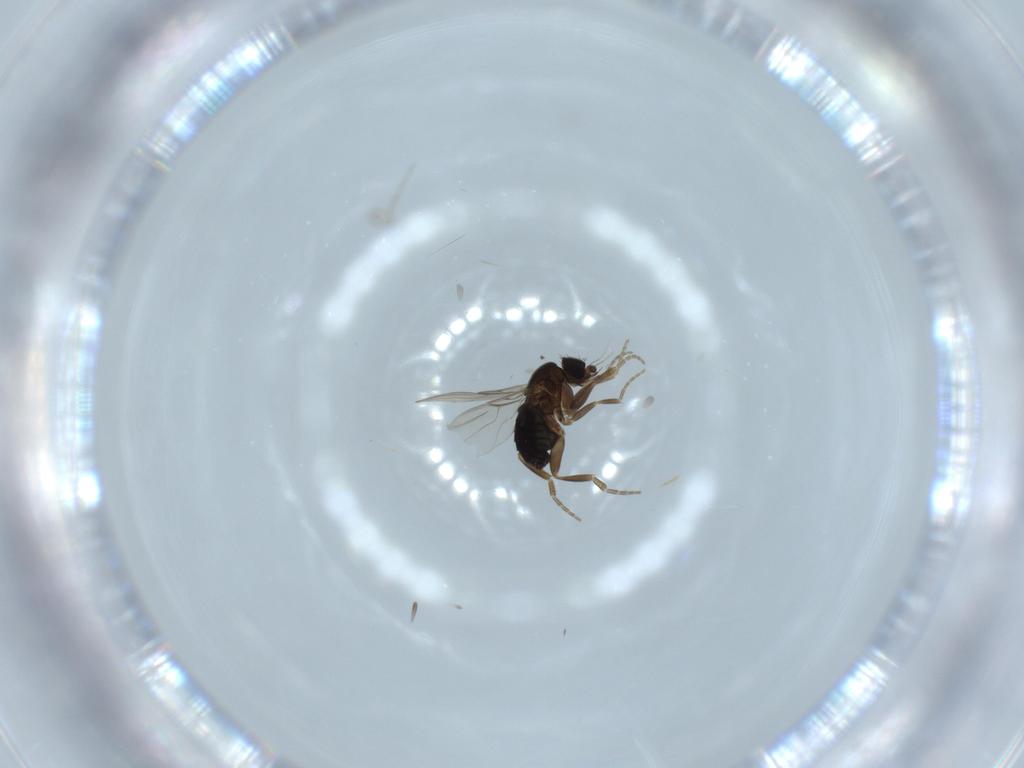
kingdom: Animalia
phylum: Arthropoda
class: Insecta
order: Diptera
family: Phoridae
